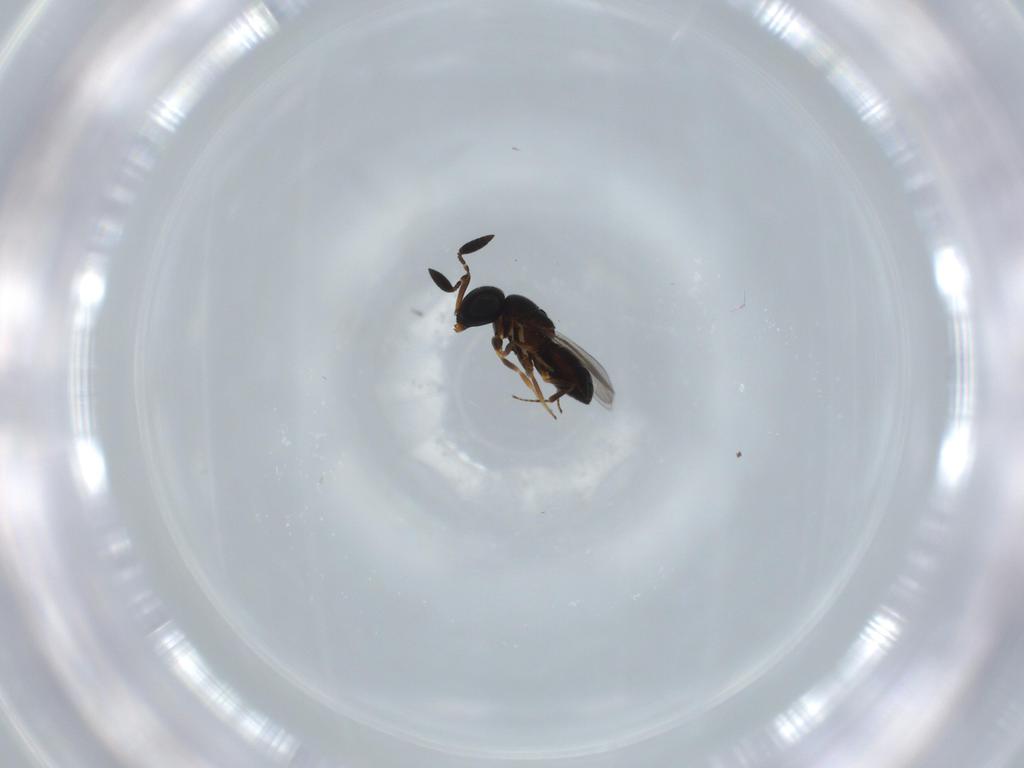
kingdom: Animalia
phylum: Arthropoda
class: Insecta
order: Hymenoptera
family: Scelionidae
